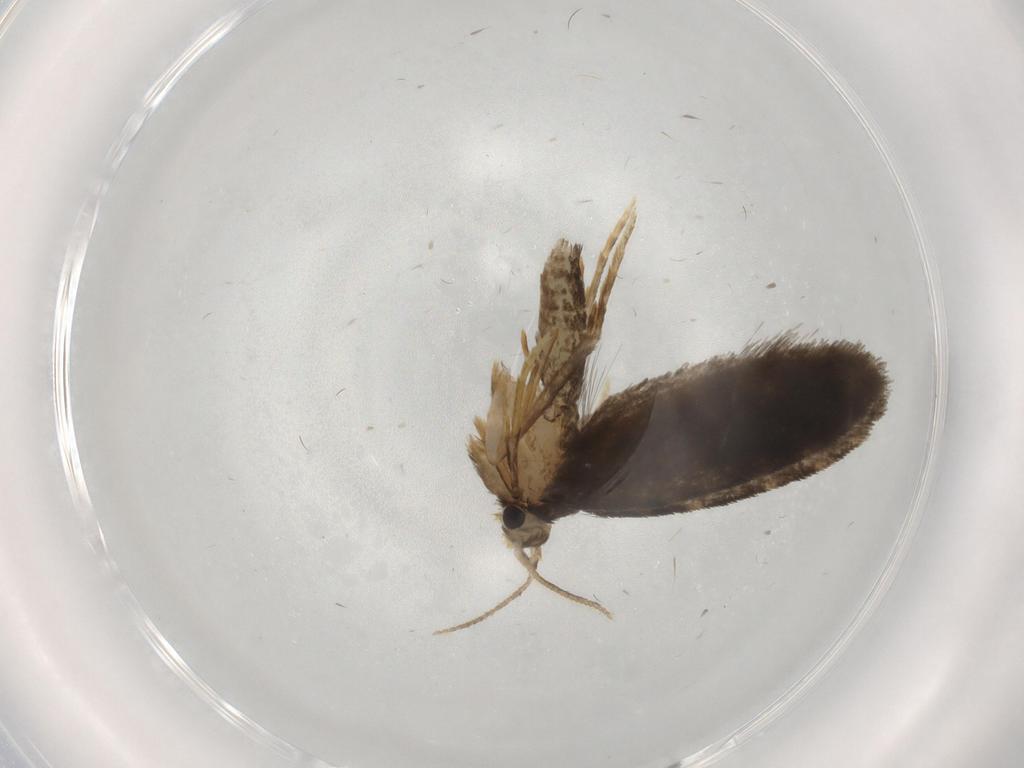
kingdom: Animalia
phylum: Arthropoda
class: Insecta
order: Lepidoptera
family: Psychidae
